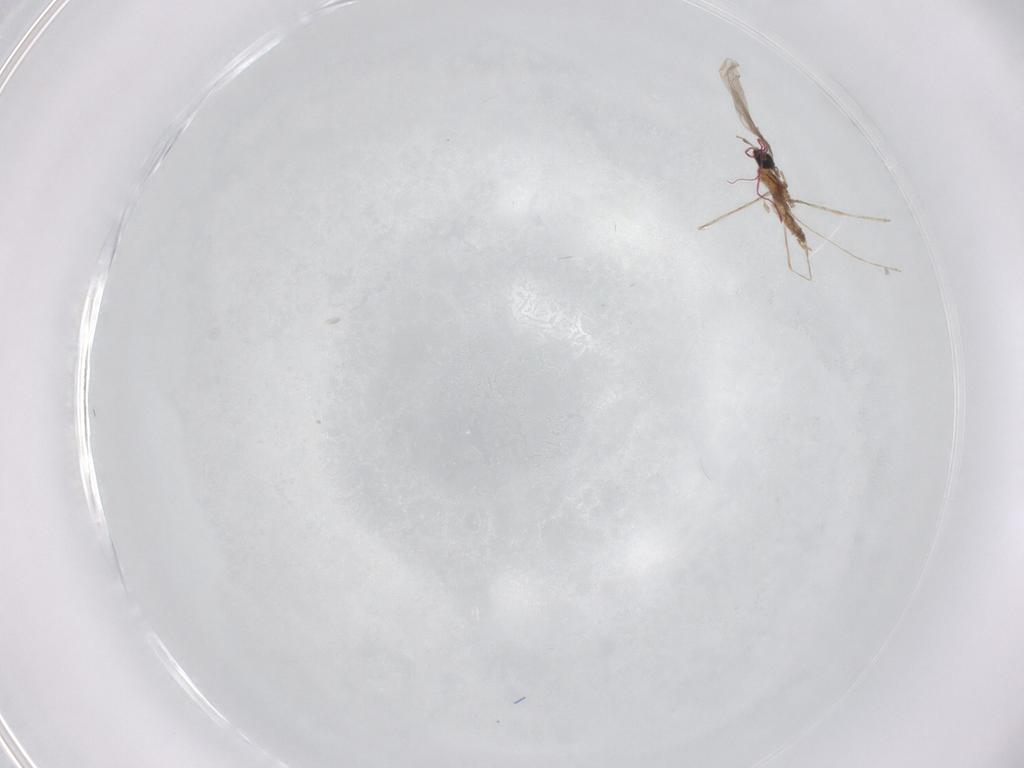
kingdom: Animalia
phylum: Arthropoda
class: Insecta
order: Diptera
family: Cecidomyiidae
